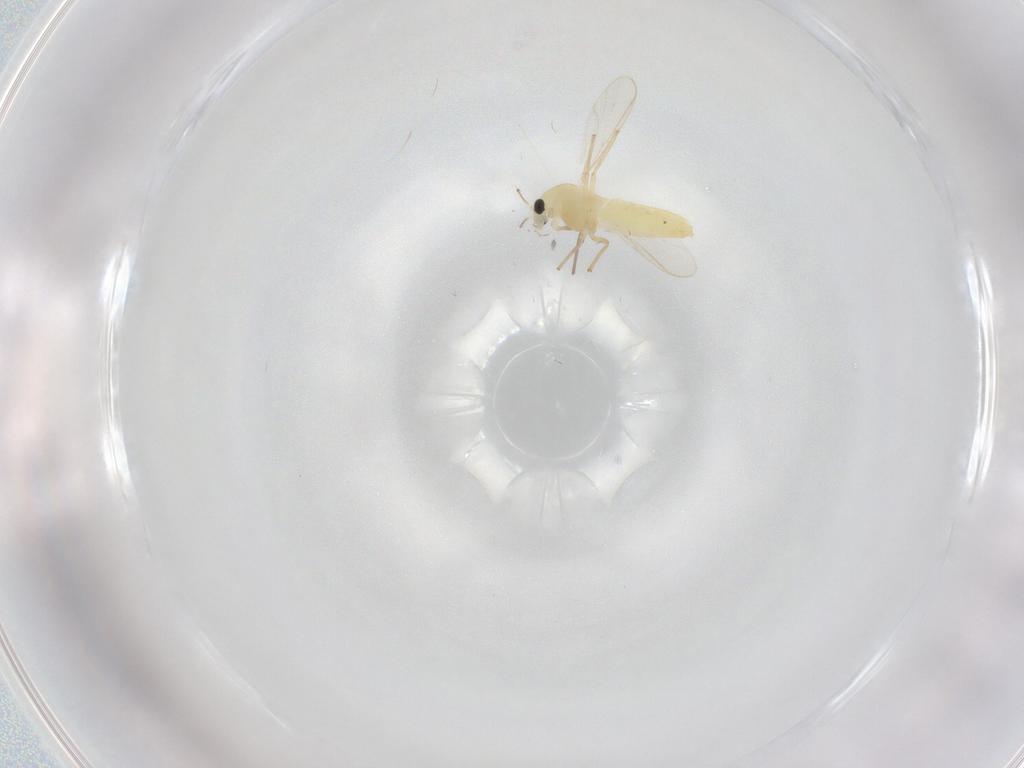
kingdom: Animalia
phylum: Arthropoda
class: Insecta
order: Diptera
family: Chironomidae
